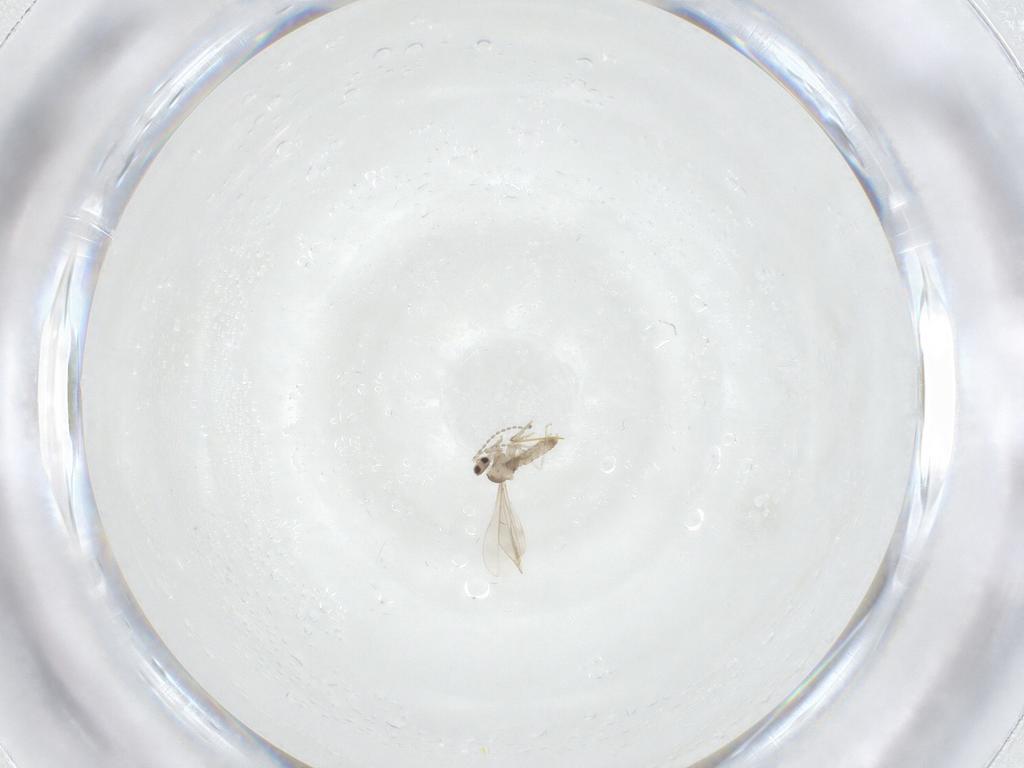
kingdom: Animalia
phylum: Arthropoda
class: Insecta
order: Diptera
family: Cecidomyiidae
